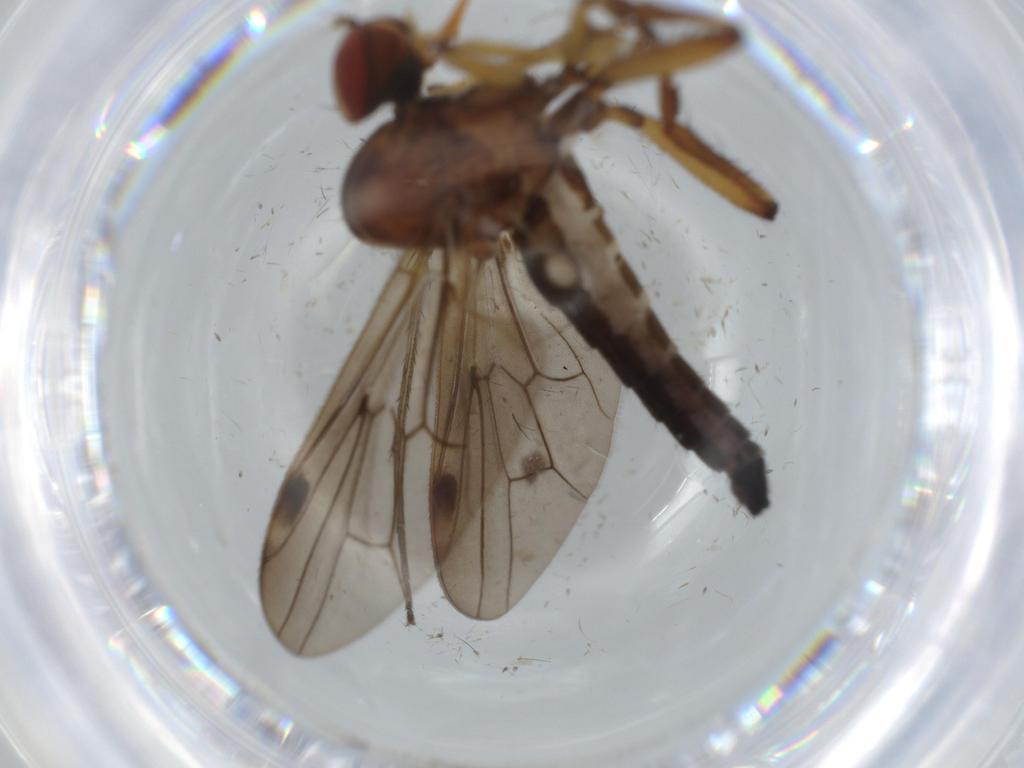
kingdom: Animalia
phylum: Arthropoda
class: Insecta
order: Diptera
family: Hybotidae
